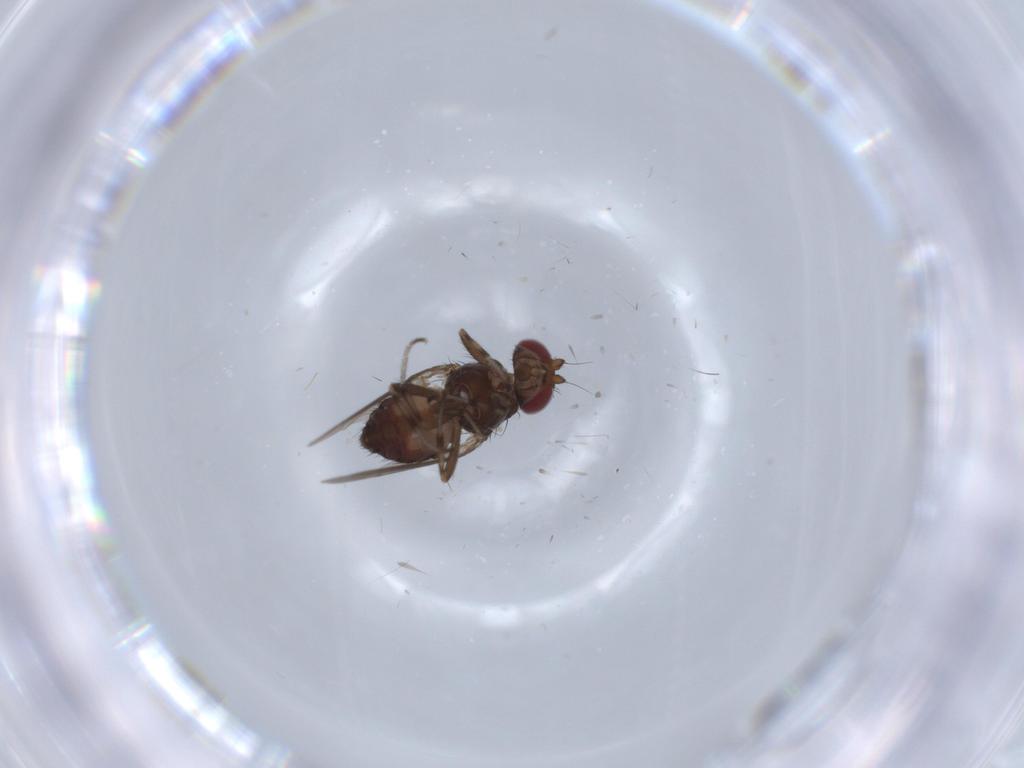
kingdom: Animalia
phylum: Arthropoda
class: Insecta
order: Diptera
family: Heleomyzidae
